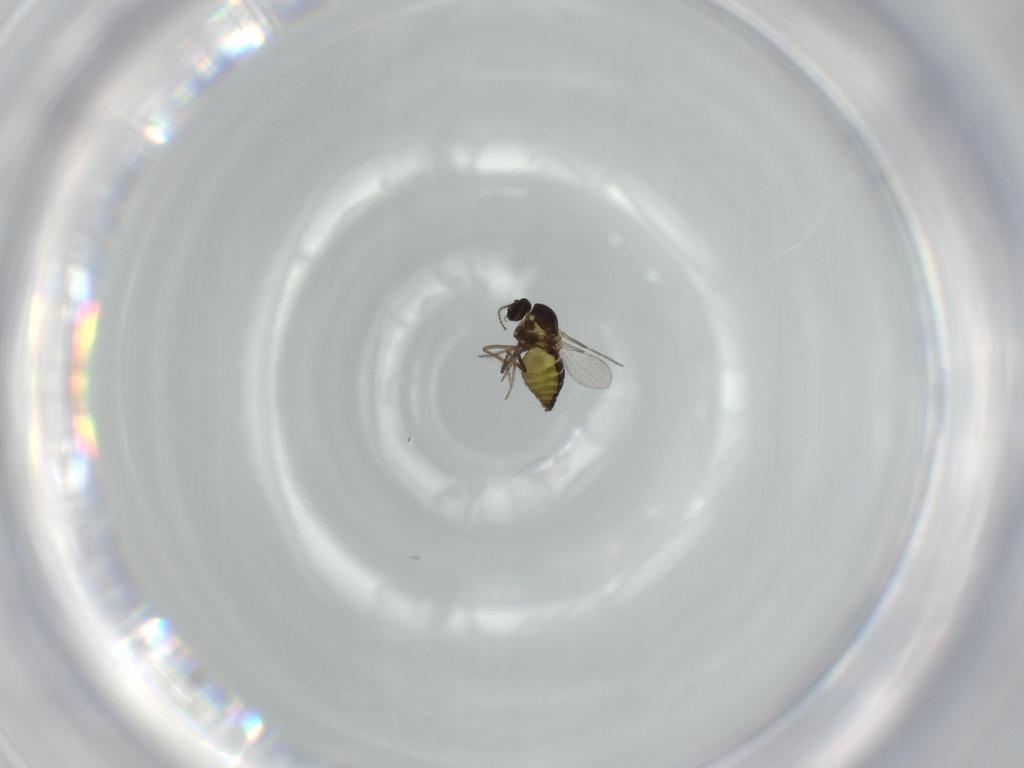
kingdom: Animalia
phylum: Arthropoda
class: Insecta
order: Diptera
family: Ceratopogonidae
